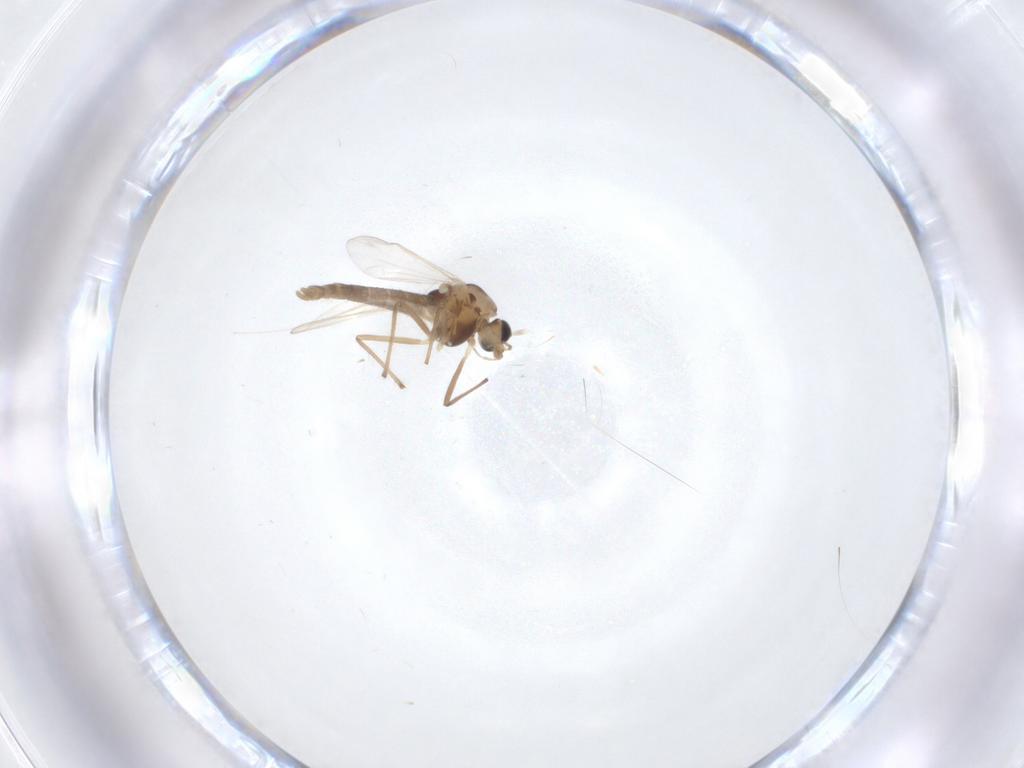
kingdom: Animalia
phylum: Arthropoda
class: Insecta
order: Diptera
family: Chironomidae
